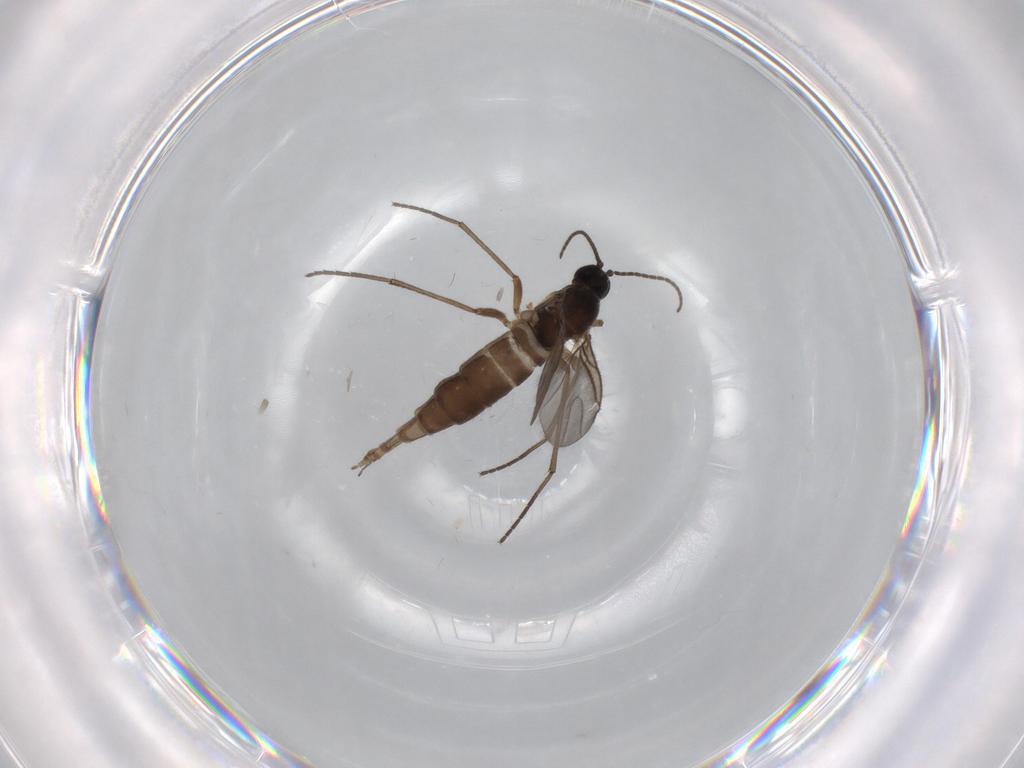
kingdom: Animalia
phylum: Arthropoda
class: Insecta
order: Diptera
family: Sciaridae
